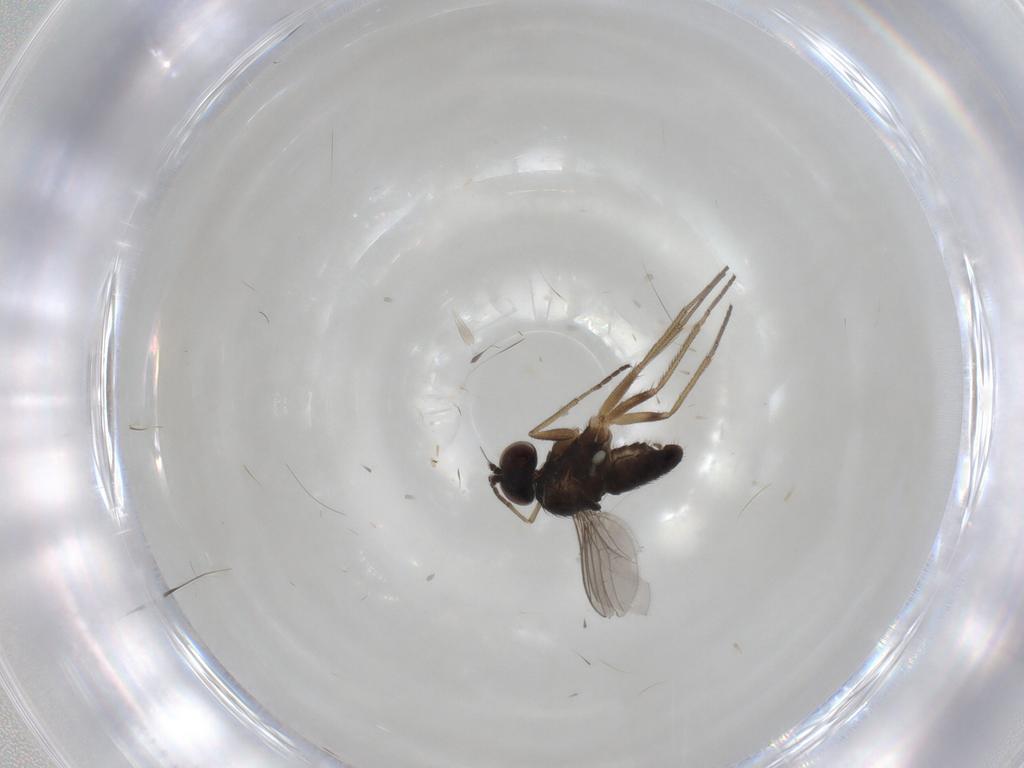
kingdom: Animalia
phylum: Arthropoda
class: Insecta
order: Diptera
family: Dolichopodidae
